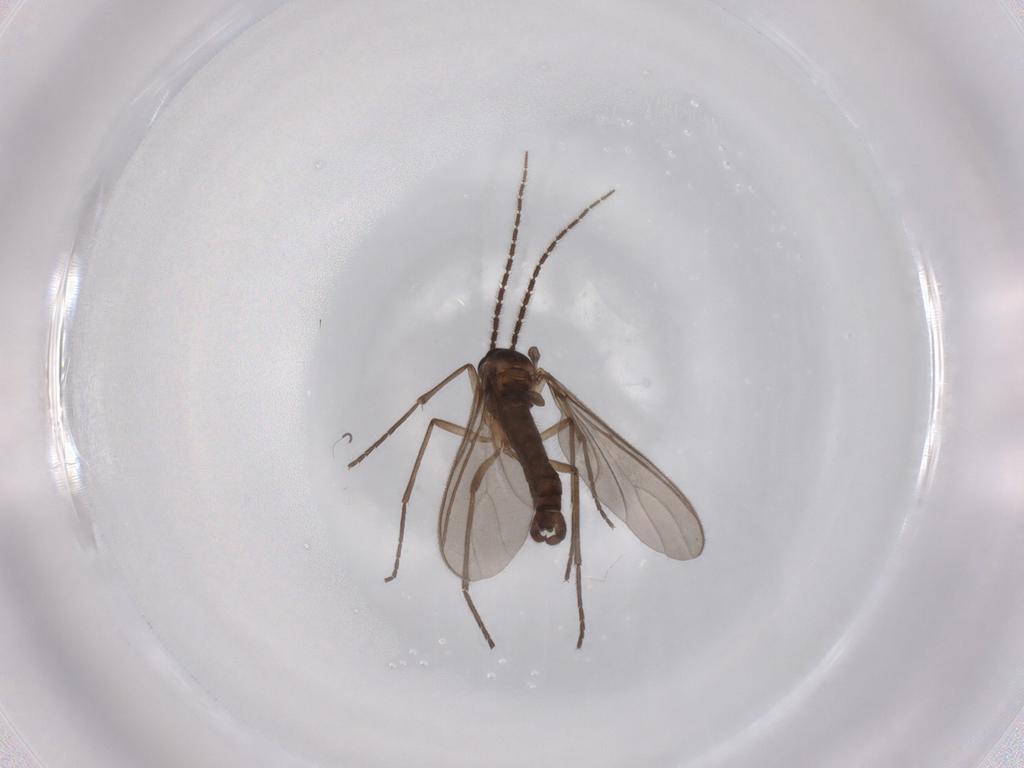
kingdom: Animalia
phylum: Arthropoda
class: Insecta
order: Diptera
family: Sciaridae
